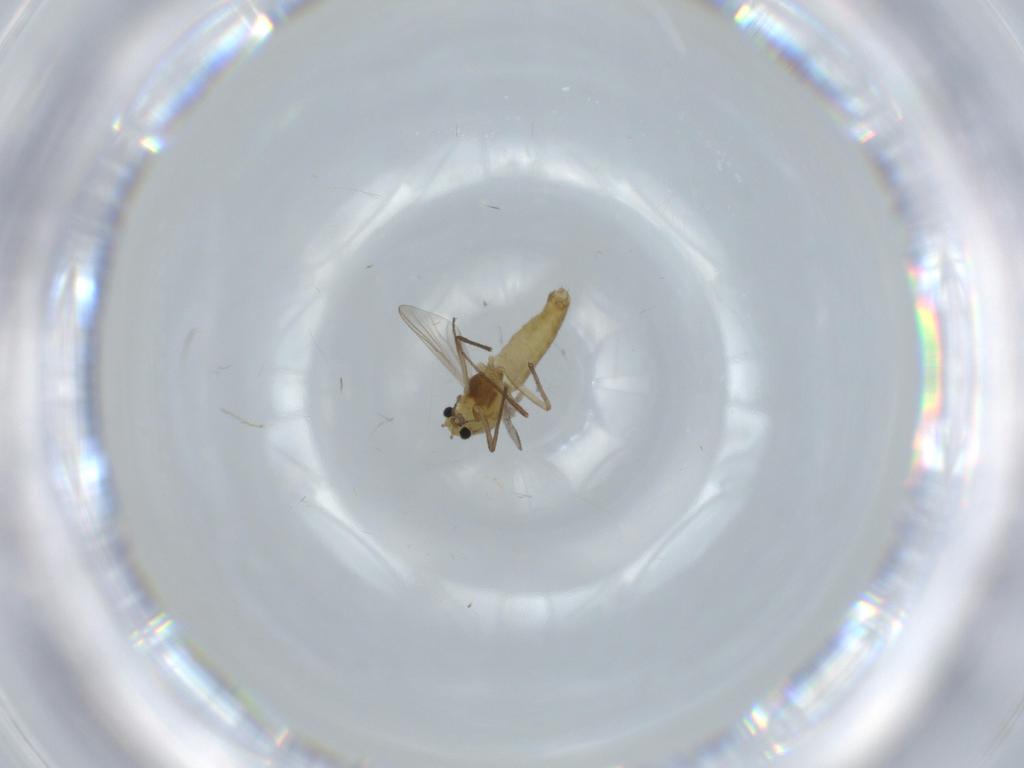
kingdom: Animalia
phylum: Arthropoda
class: Insecta
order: Diptera
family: Chironomidae
